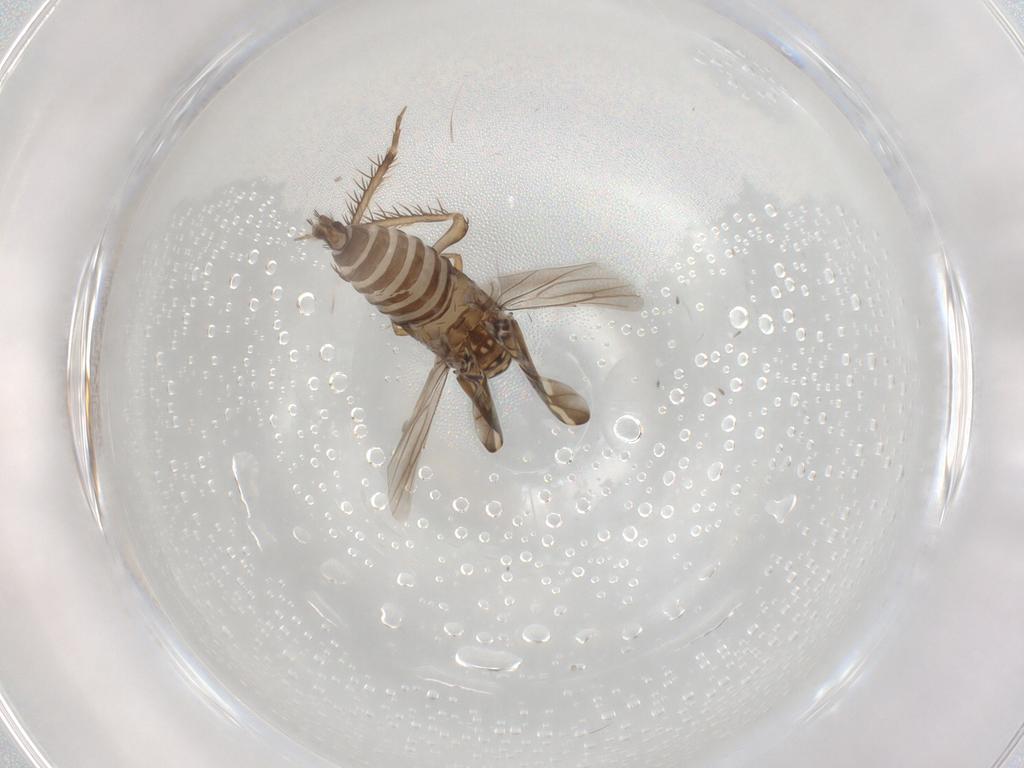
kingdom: Animalia
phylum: Arthropoda
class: Insecta
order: Hemiptera
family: Cicadellidae
